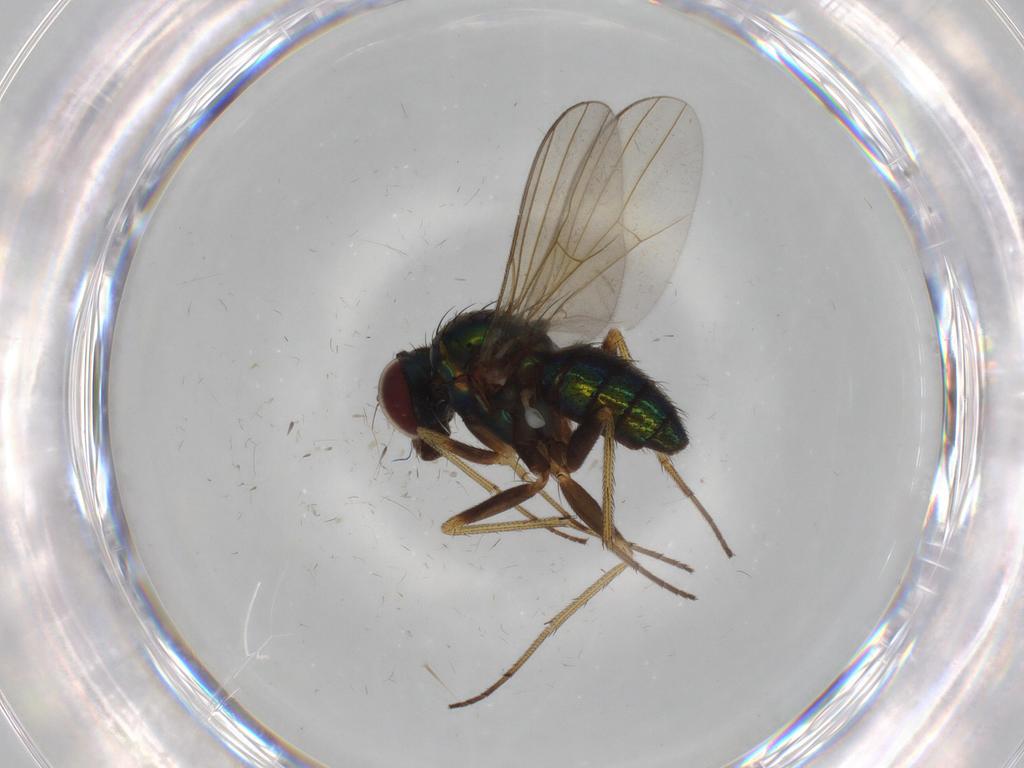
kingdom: Animalia
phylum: Arthropoda
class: Insecta
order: Diptera
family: Dolichopodidae
